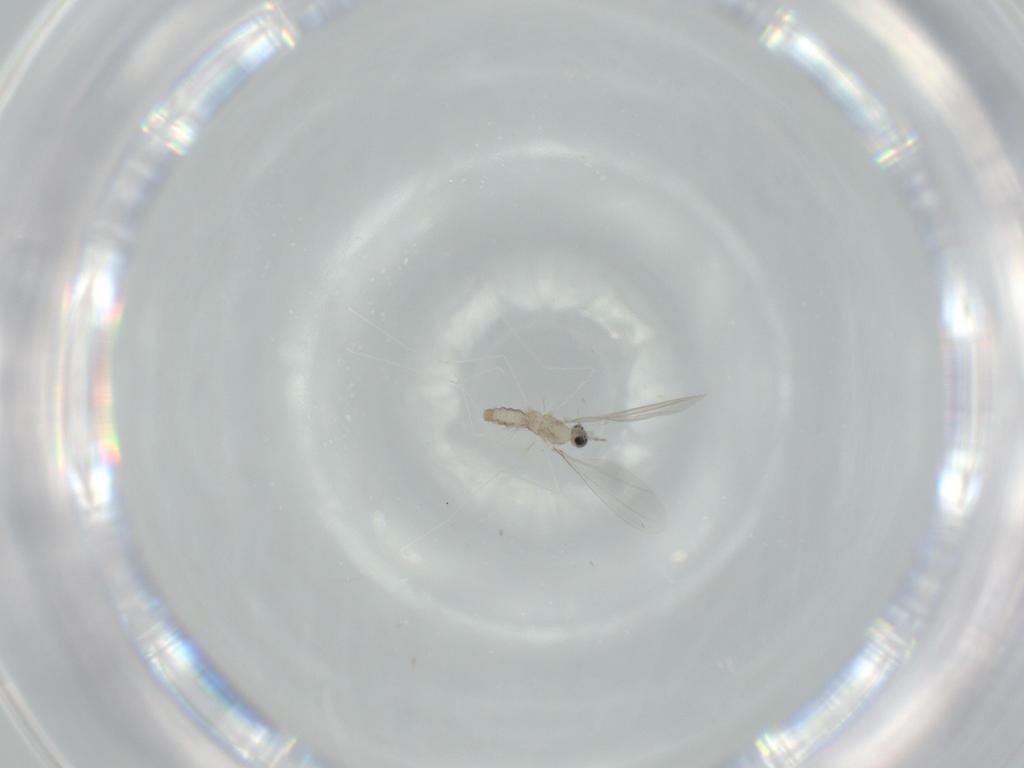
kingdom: Animalia
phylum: Arthropoda
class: Insecta
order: Diptera
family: Cecidomyiidae
